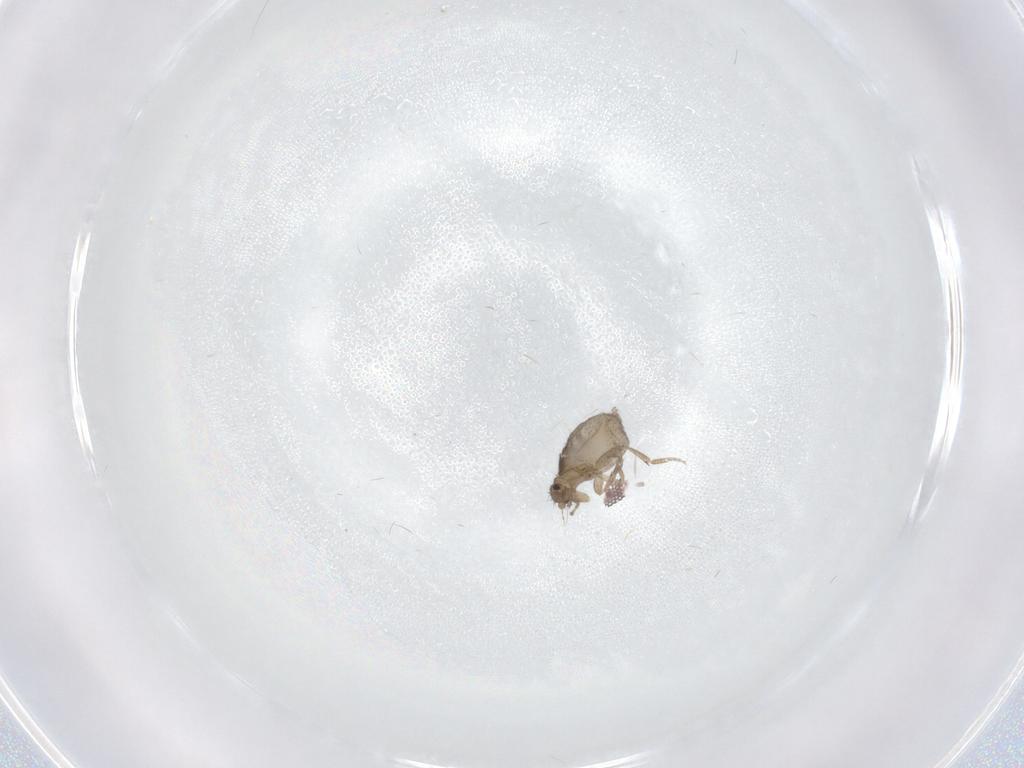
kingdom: Animalia
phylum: Arthropoda
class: Insecta
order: Diptera
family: Phoridae
